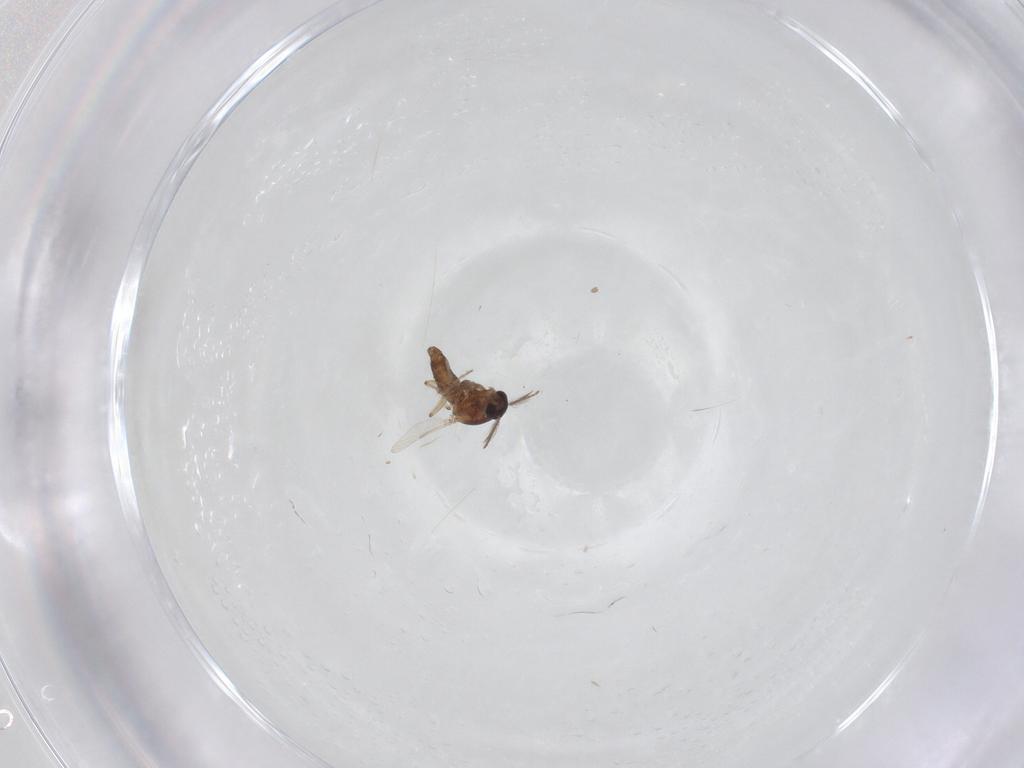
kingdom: Animalia
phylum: Arthropoda
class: Insecta
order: Diptera
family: Ceratopogonidae
